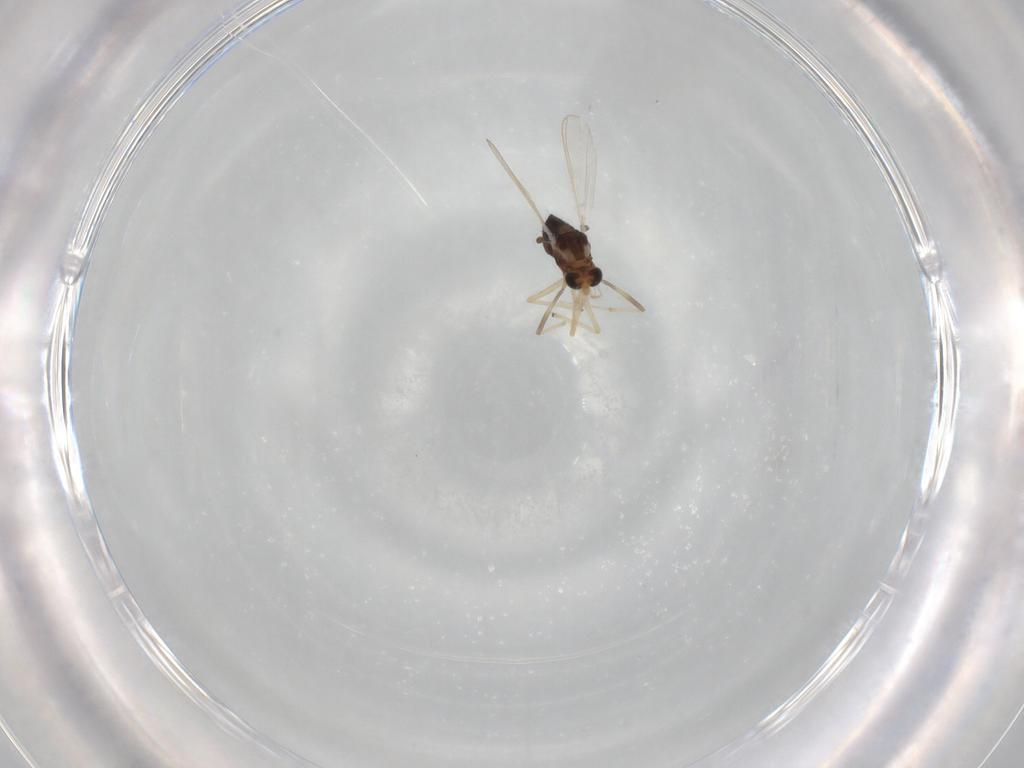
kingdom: Animalia
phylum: Arthropoda
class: Insecta
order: Diptera
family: Chironomidae
